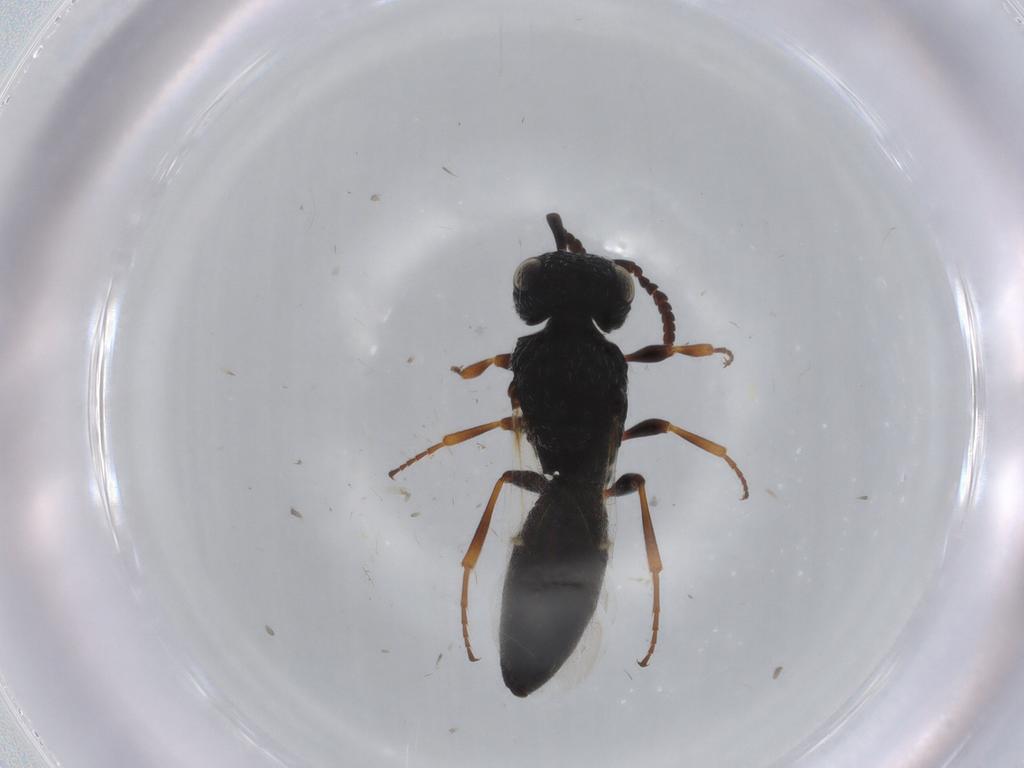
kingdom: Animalia
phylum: Arthropoda
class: Insecta
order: Hymenoptera
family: Scelionidae
